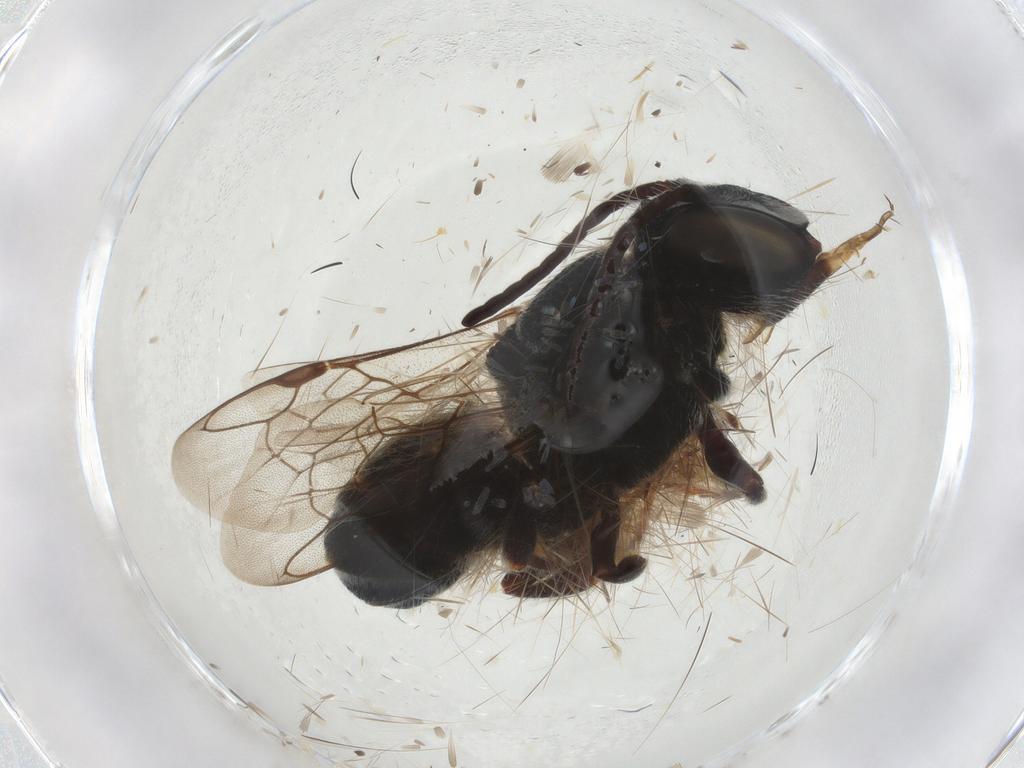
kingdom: Animalia
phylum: Arthropoda
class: Insecta
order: Hymenoptera
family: Megachilidae
